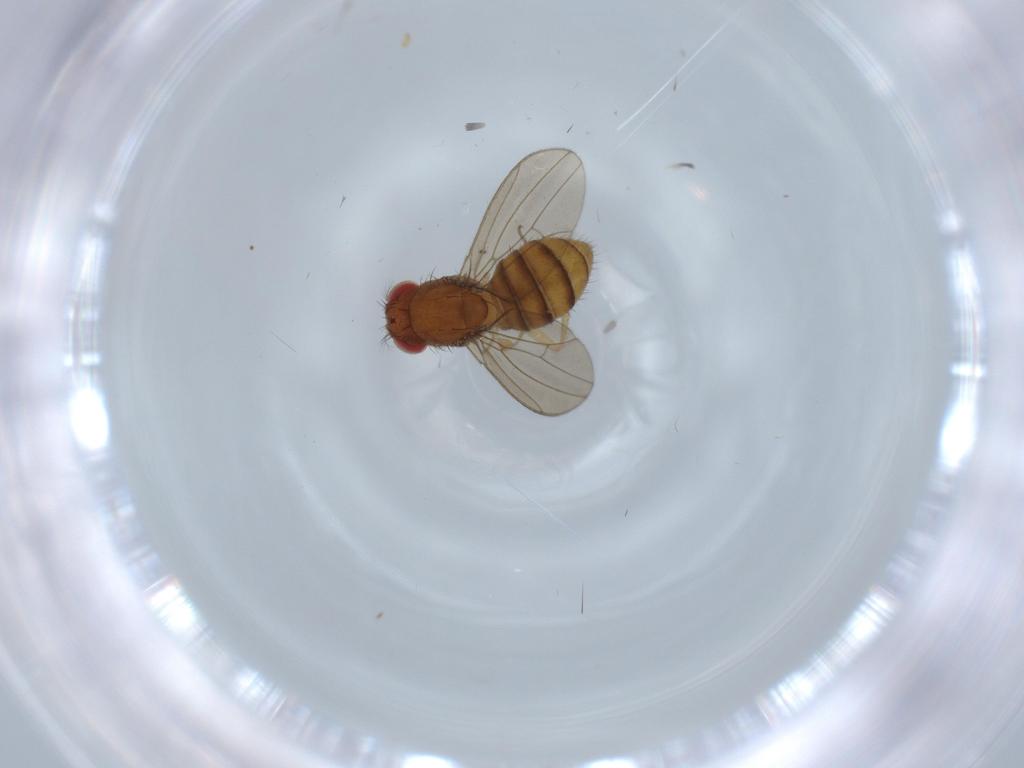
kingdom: Animalia
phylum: Arthropoda
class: Insecta
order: Diptera
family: Drosophilidae
